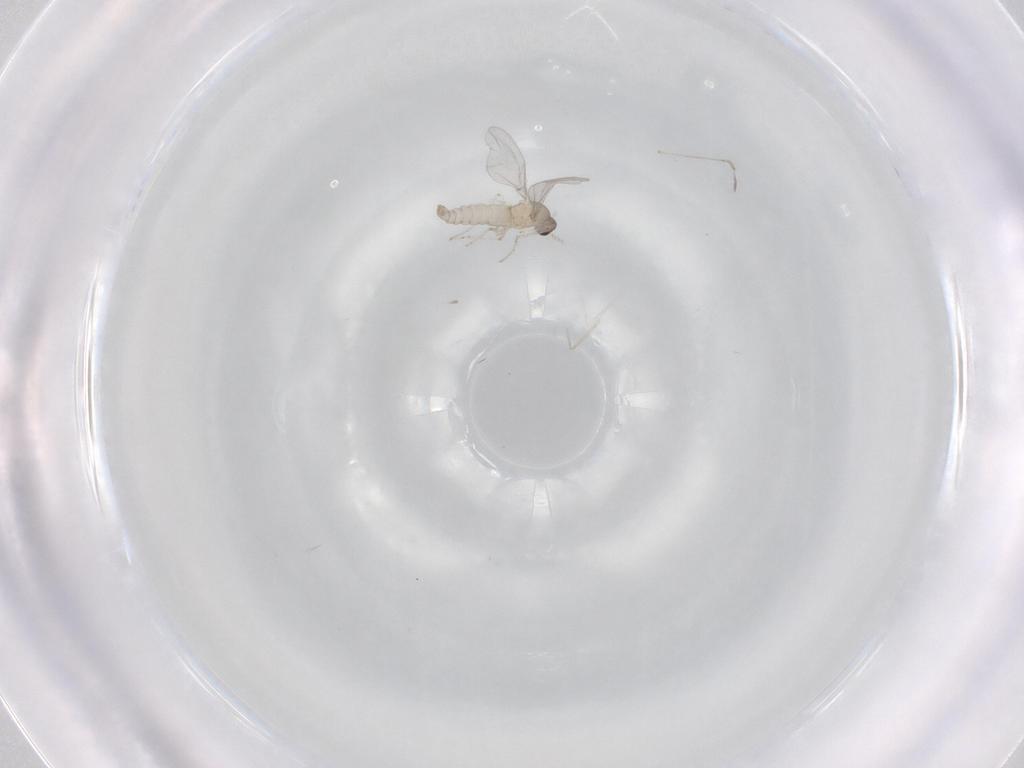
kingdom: Animalia
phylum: Arthropoda
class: Insecta
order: Diptera
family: Cecidomyiidae
